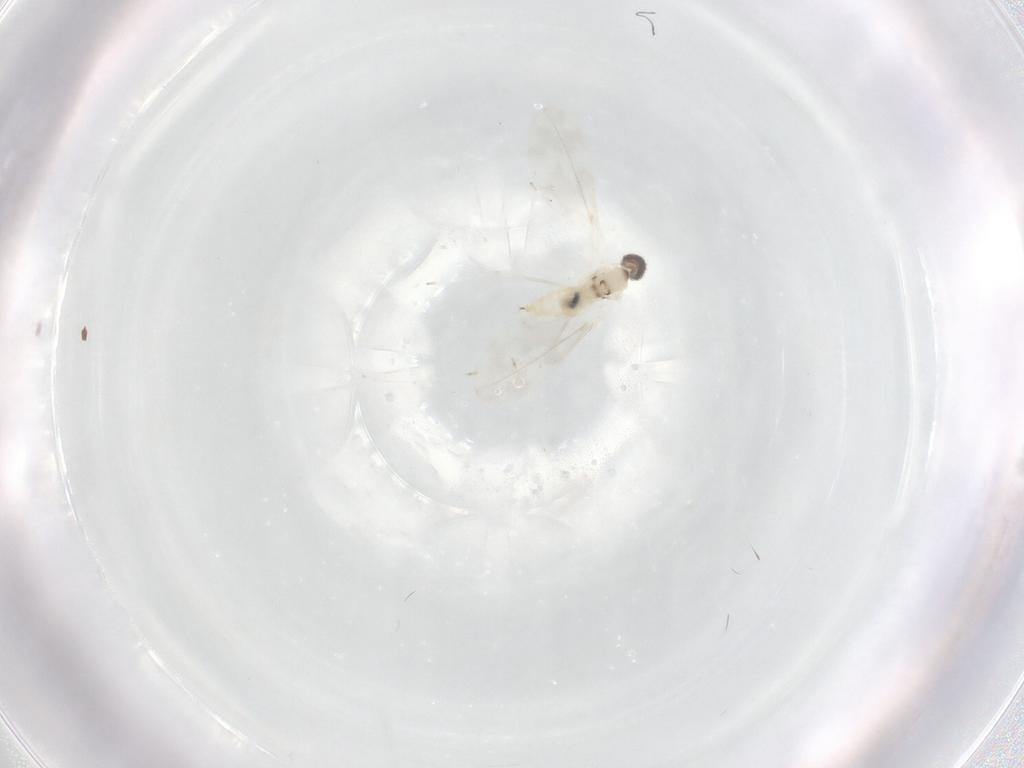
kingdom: Animalia
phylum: Arthropoda
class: Insecta
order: Diptera
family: Cecidomyiidae
